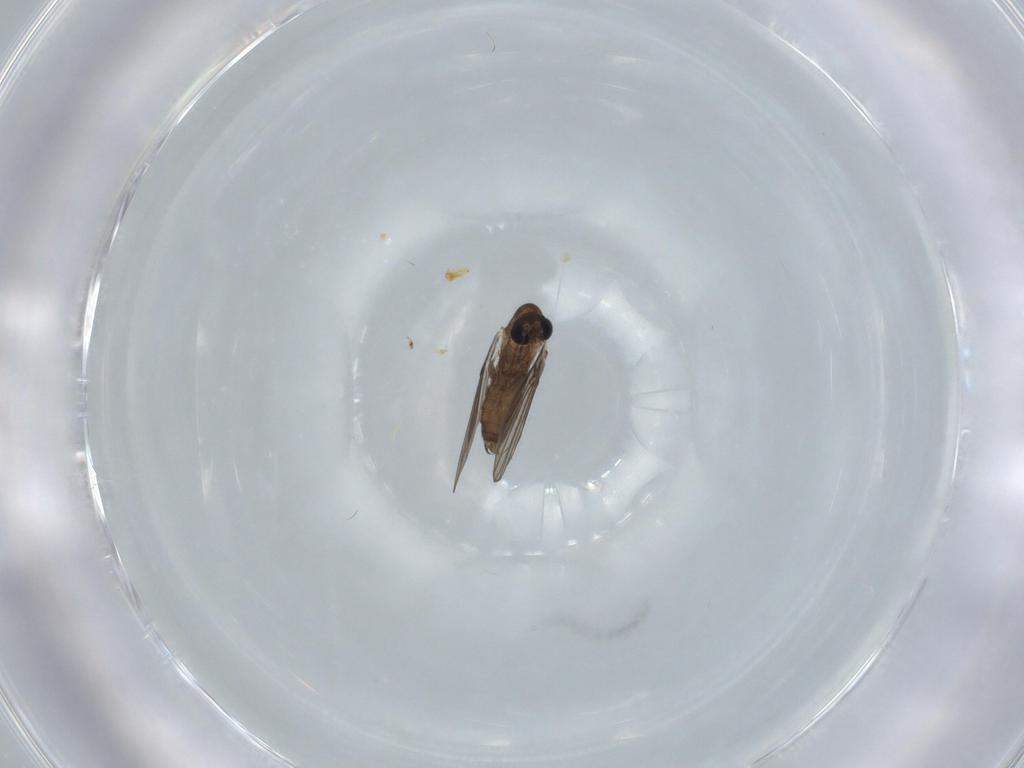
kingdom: Animalia
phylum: Arthropoda
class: Insecta
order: Diptera
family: Psychodidae
